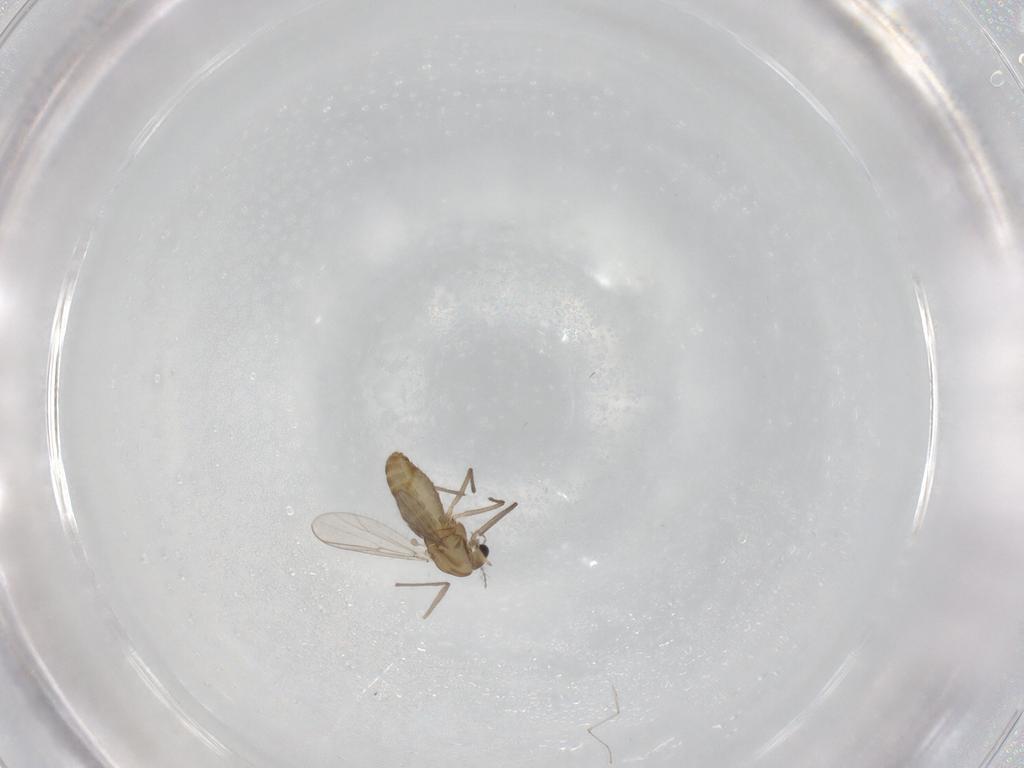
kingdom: Animalia
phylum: Arthropoda
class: Insecta
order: Diptera
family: Chironomidae
